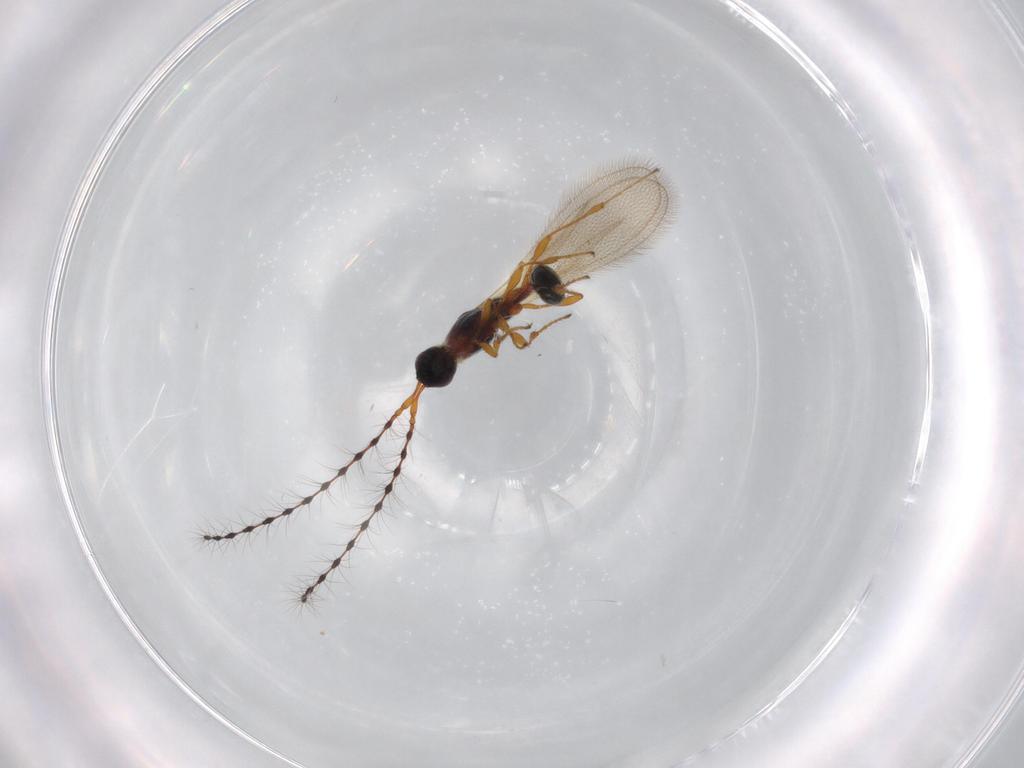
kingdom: Animalia
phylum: Arthropoda
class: Insecta
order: Hymenoptera
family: Diapriidae
